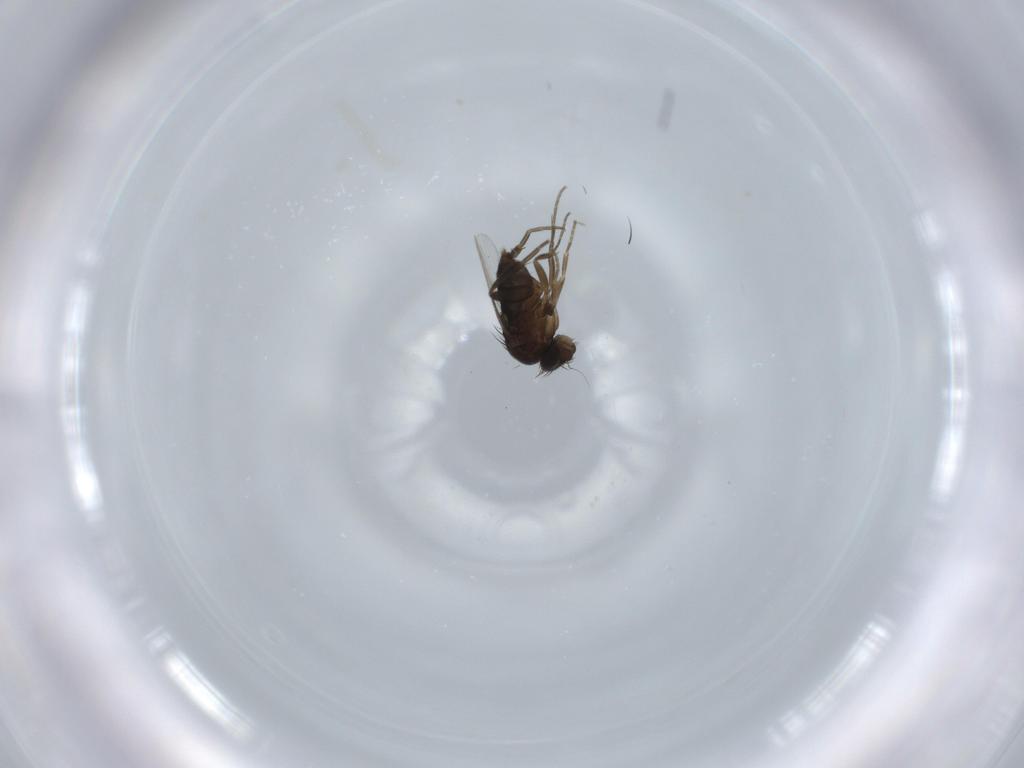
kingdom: Animalia
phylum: Arthropoda
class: Insecta
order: Diptera
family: Phoridae
